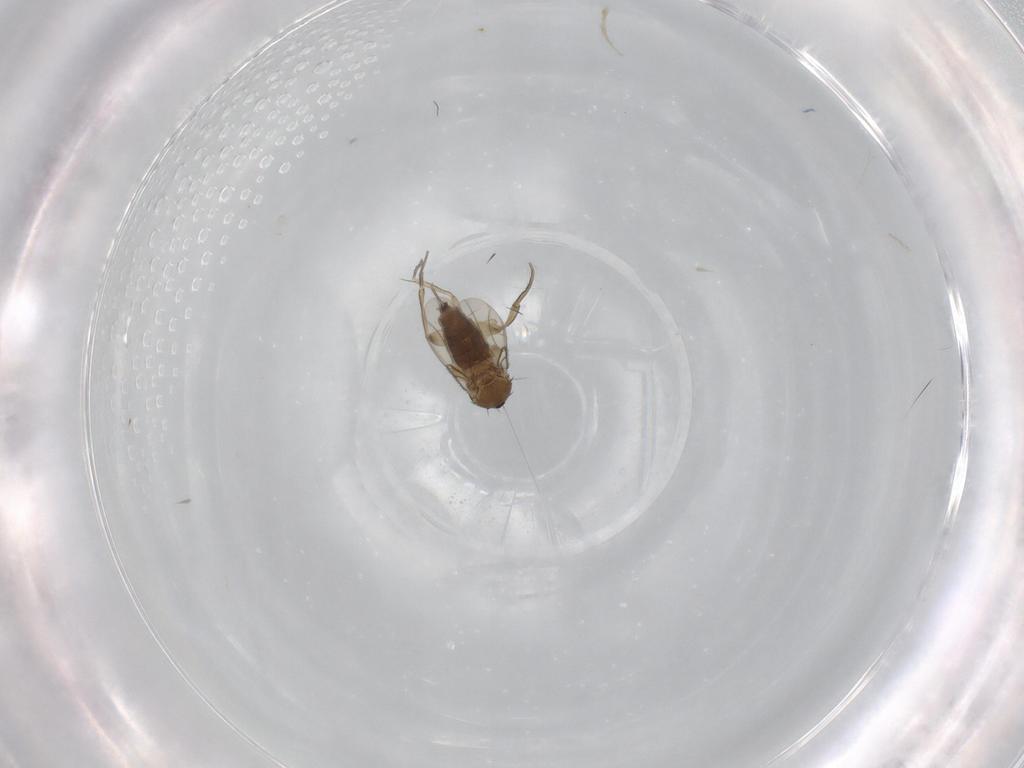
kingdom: Animalia
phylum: Arthropoda
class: Insecta
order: Diptera
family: Phoridae
